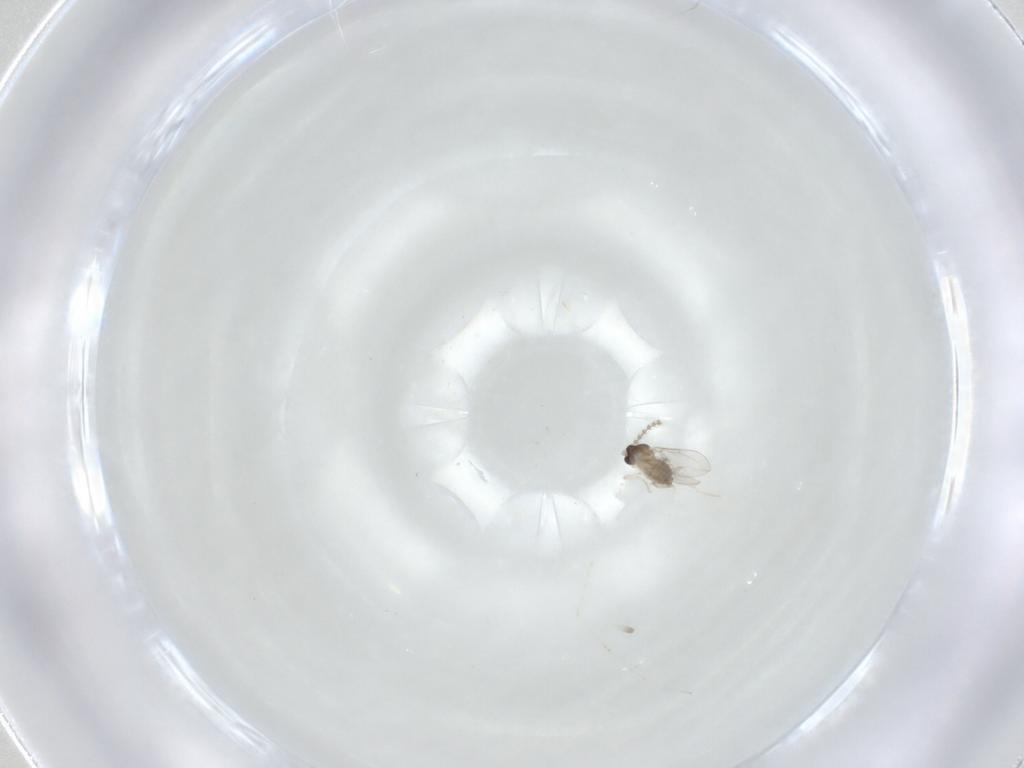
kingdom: Animalia
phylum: Arthropoda
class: Insecta
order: Diptera
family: Cecidomyiidae
